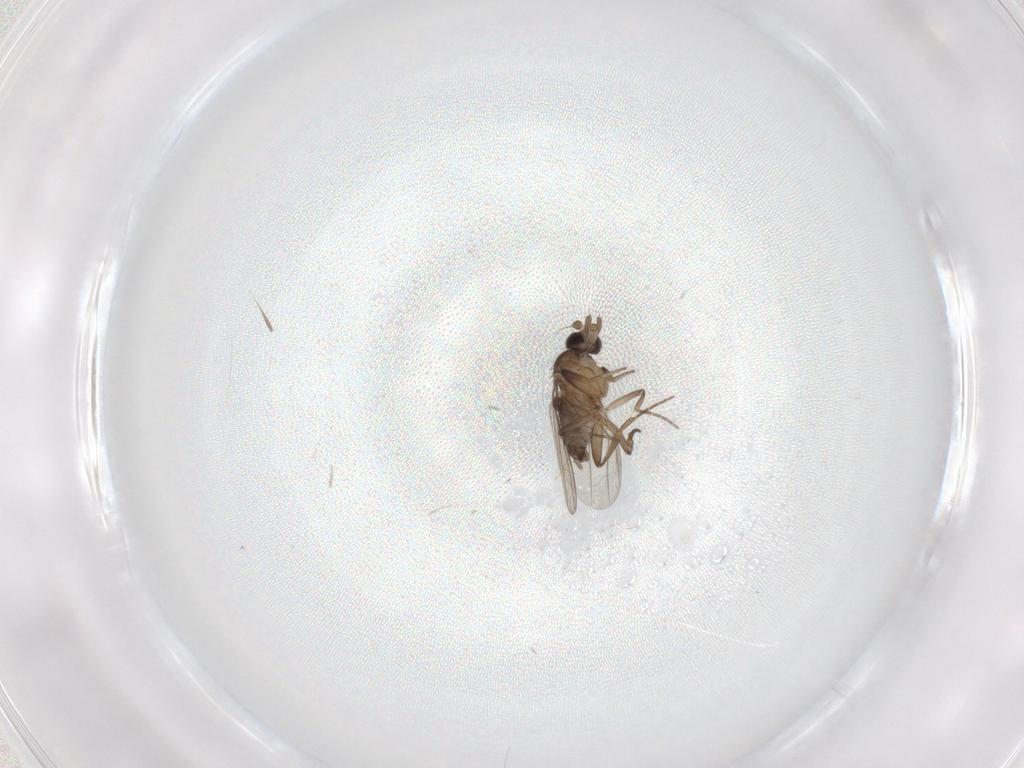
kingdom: Animalia
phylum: Arthropoda
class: Insecta
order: Diptera
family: Phoridae
